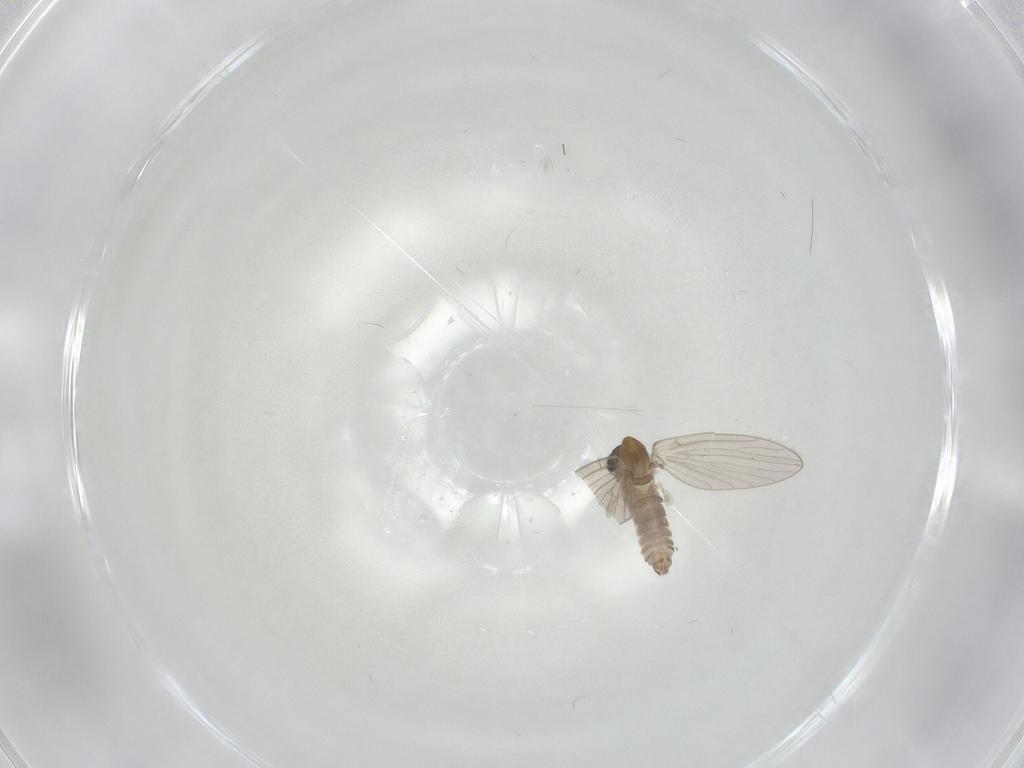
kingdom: Animalia
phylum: Arthropoda
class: Insecta
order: Diptera
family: Psychodidae
